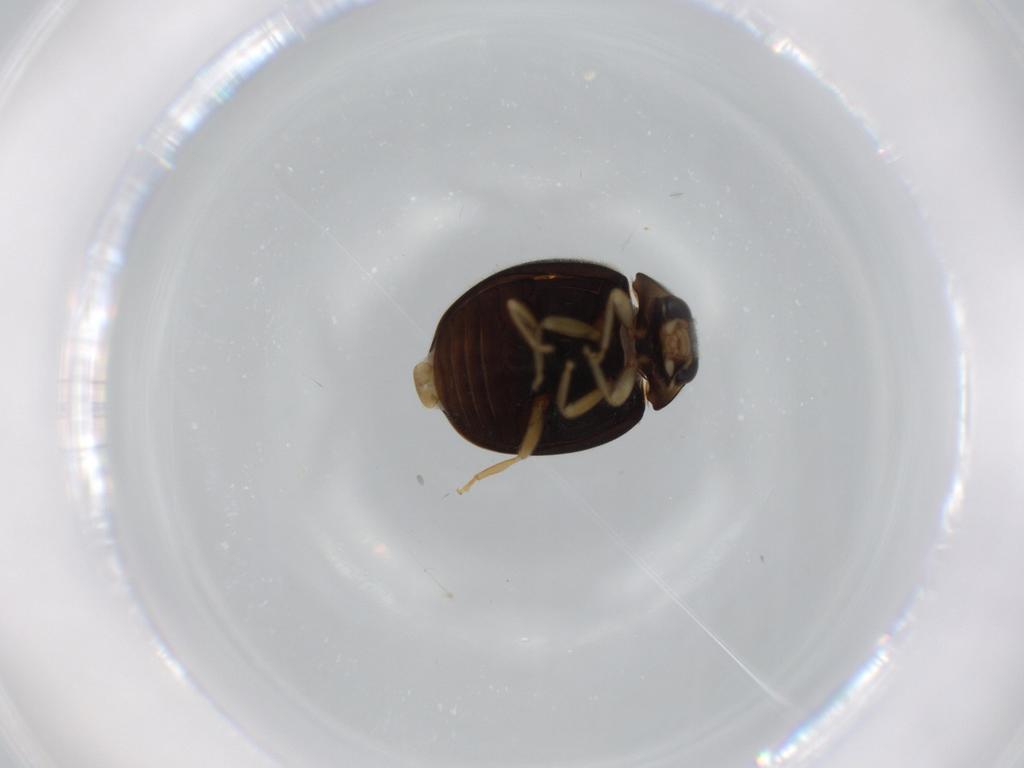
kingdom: Animalia
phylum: Arthropoda
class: Insecta
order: Coleoptera
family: Coccinellidae
